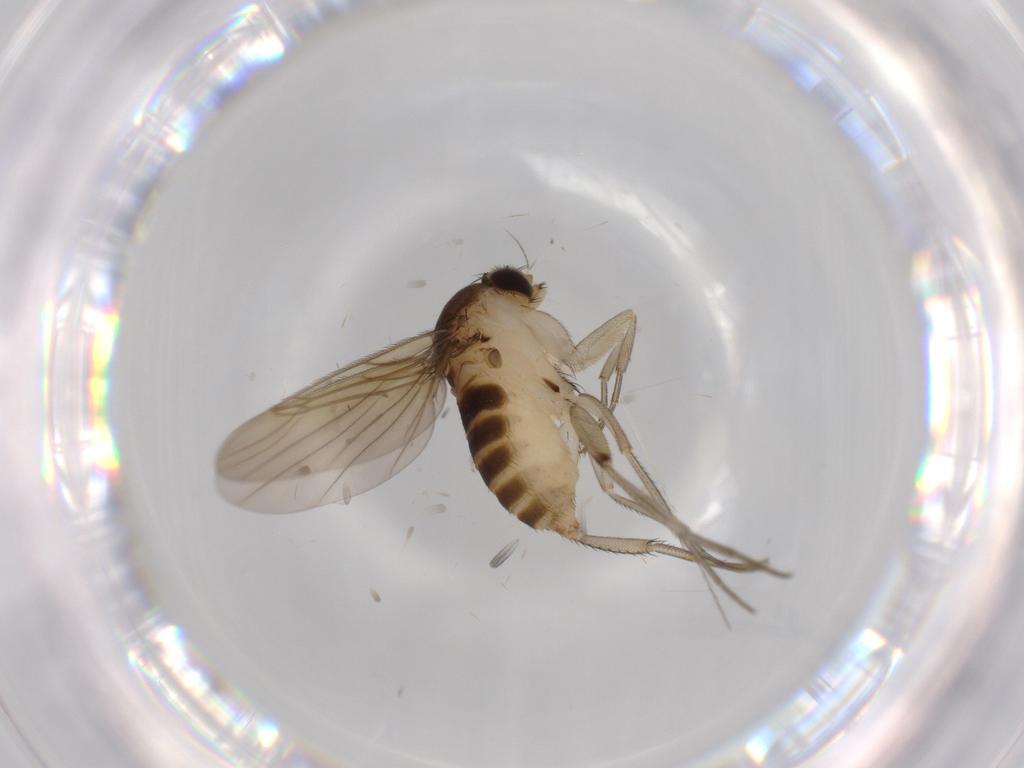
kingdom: Animalia
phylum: Arthropoda
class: Insecta
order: Diptera
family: Phoridae
